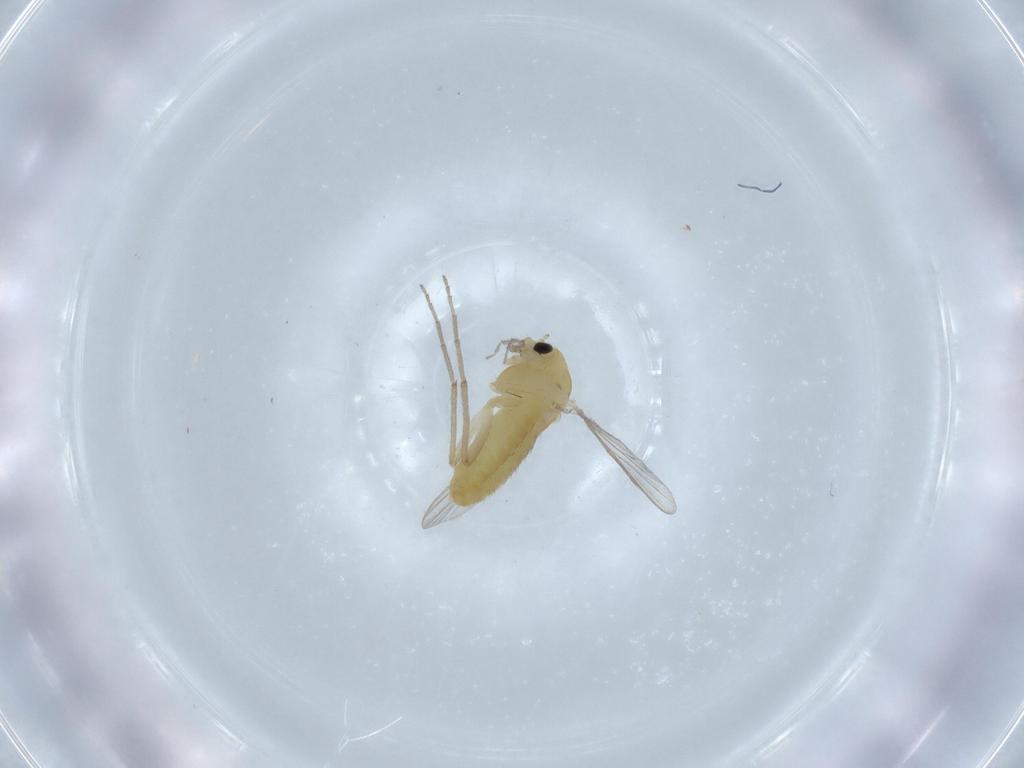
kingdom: Animalia
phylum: Arthropoda
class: Insecta
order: Diptera
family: Chironomidae
